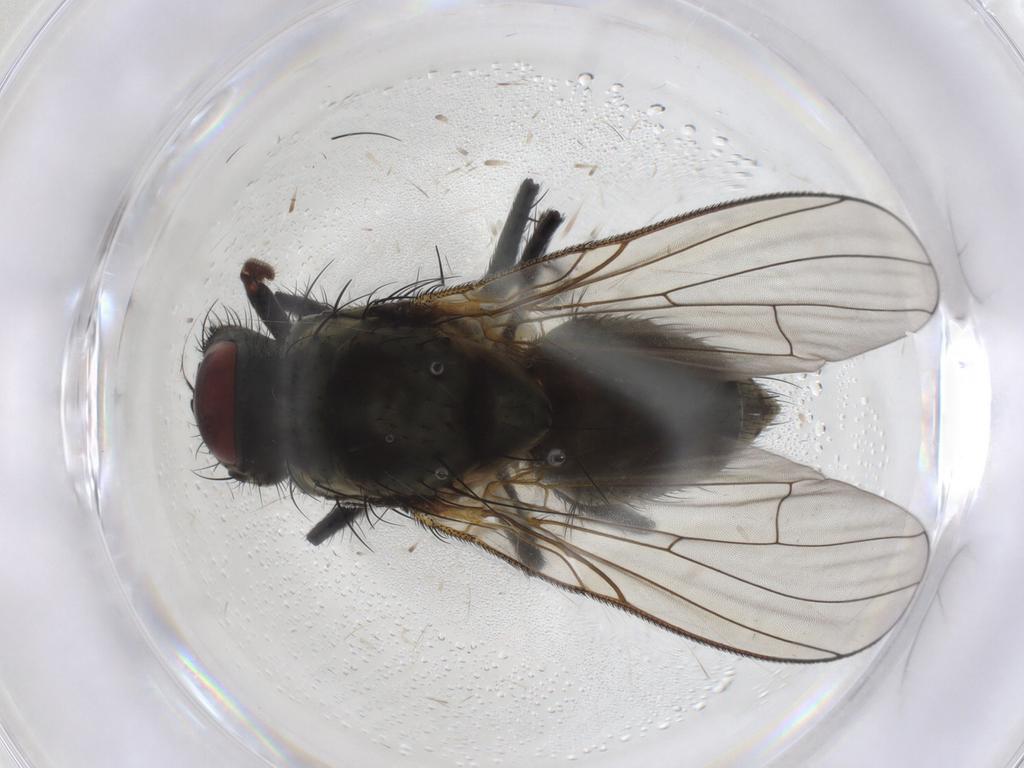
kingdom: Animalia
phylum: Arthropoda
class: Insecta
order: Diptera
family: Muscidae
